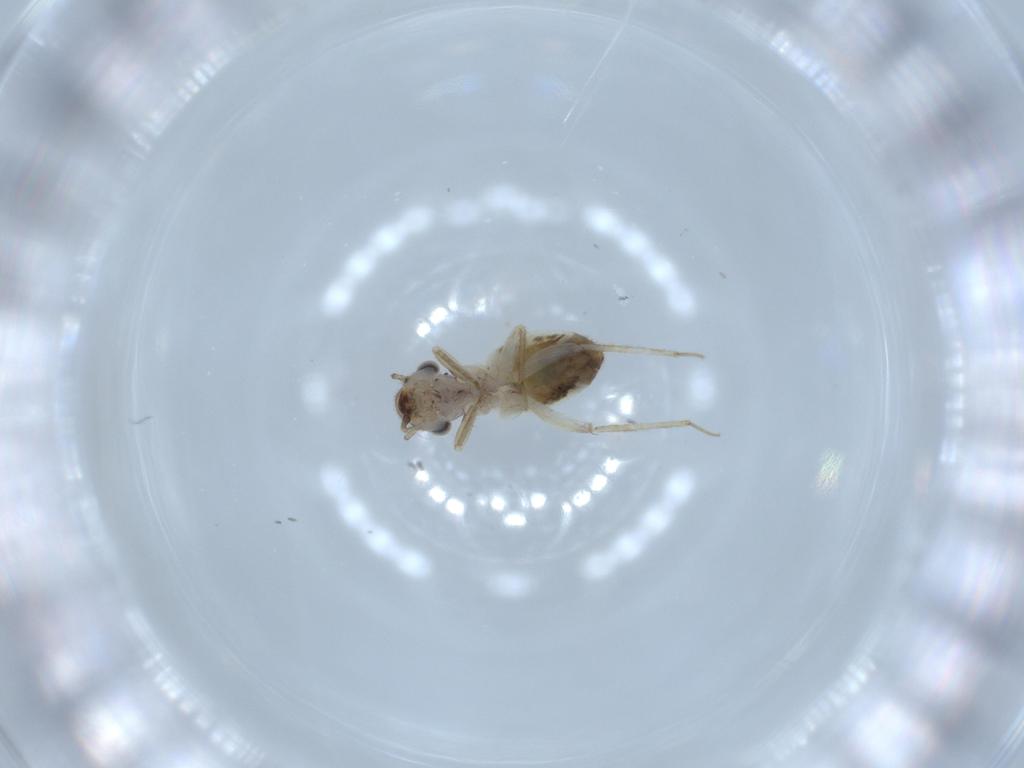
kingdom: Animalia
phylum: Arthropoda
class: Insecta
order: Psocodea
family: Lepidopsocidae
